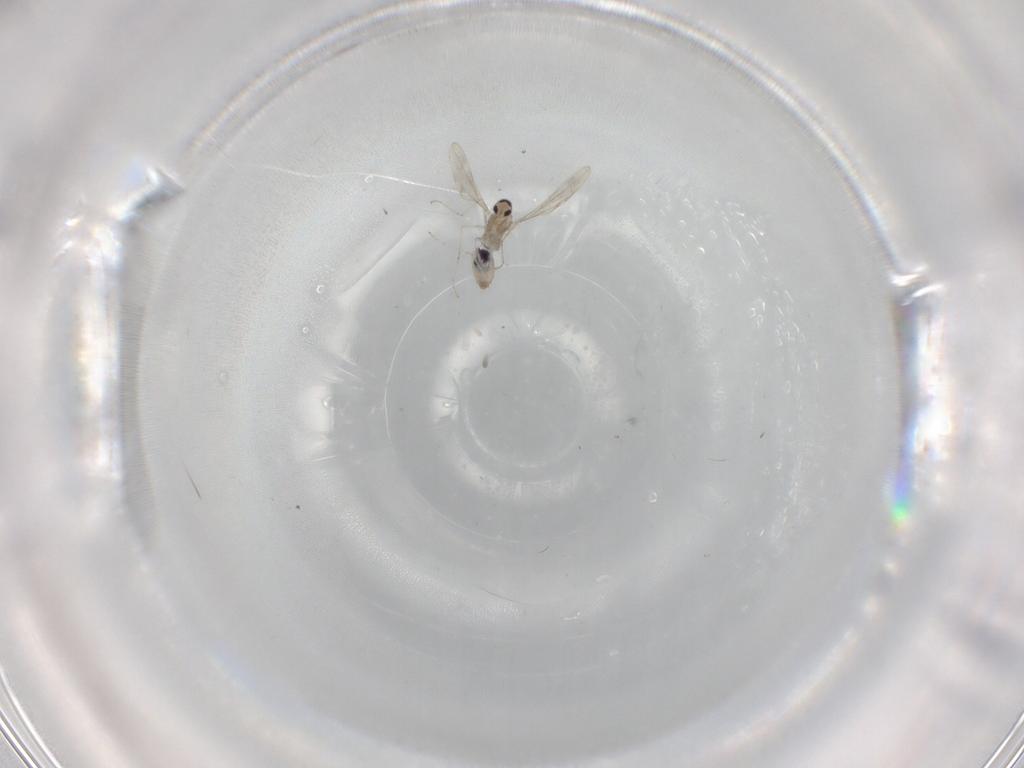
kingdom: Animalia
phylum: Arthropoda
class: Insecta
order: Diptera
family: Cecidomyiidae
